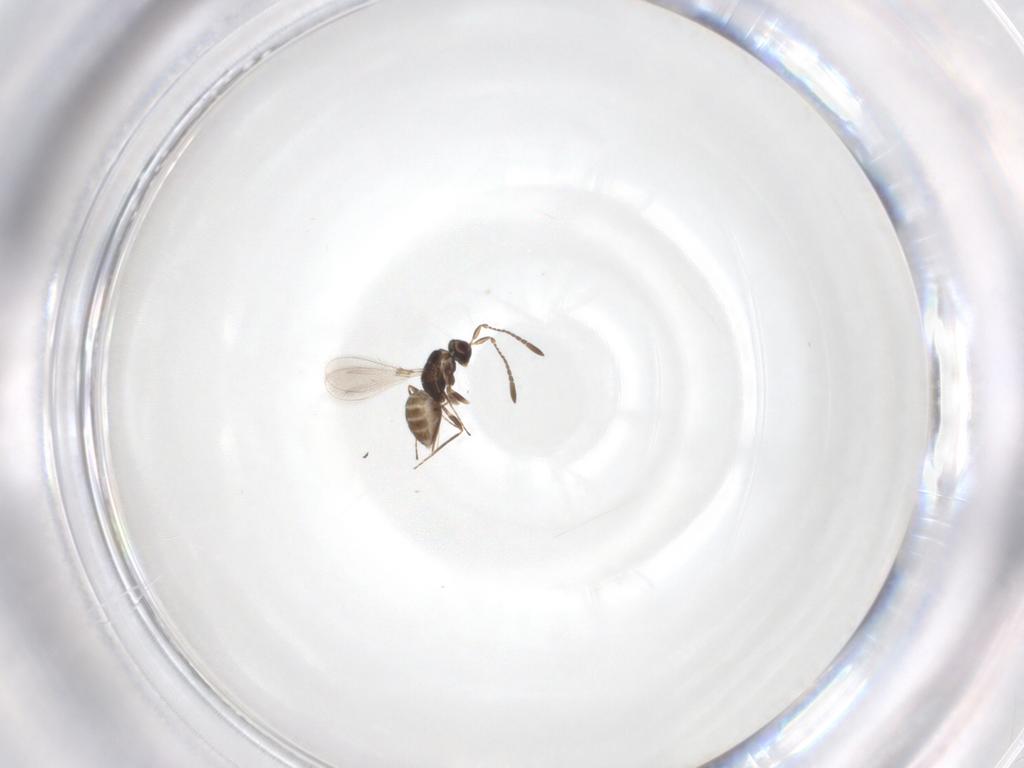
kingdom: Animalia
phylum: Arthropoda
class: Insecta
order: Hymenoptera
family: Mymaridae
